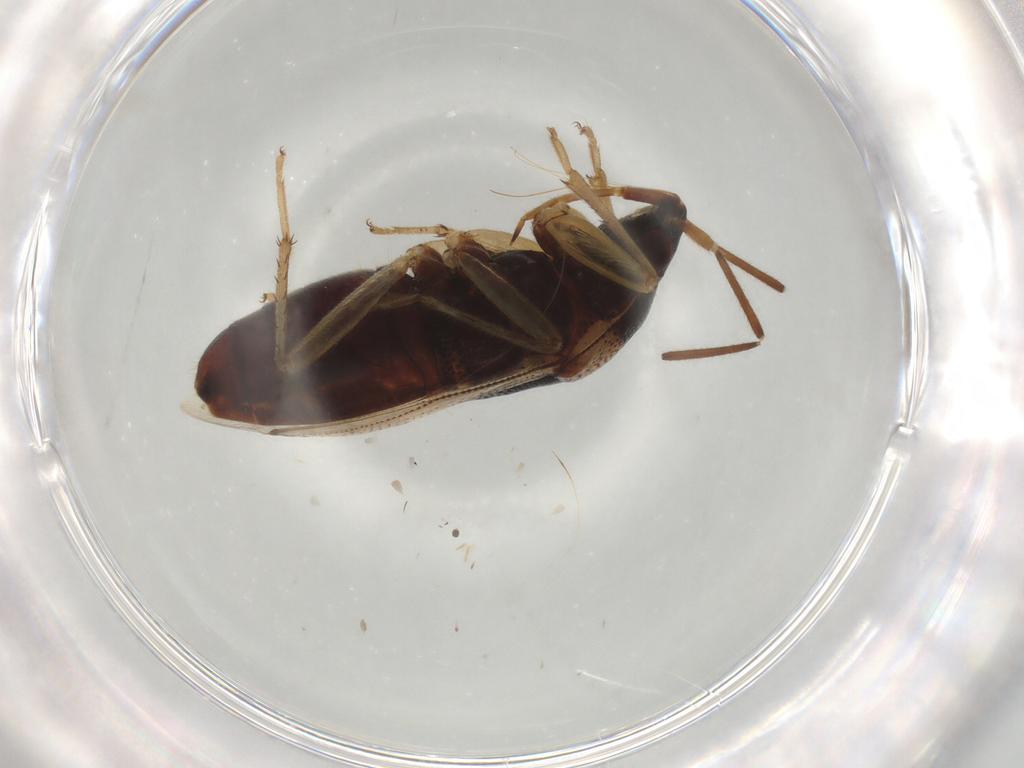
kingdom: Animalia
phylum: Arthropoda
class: Insecta
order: Hemiptera
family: Rhyparochromidae
